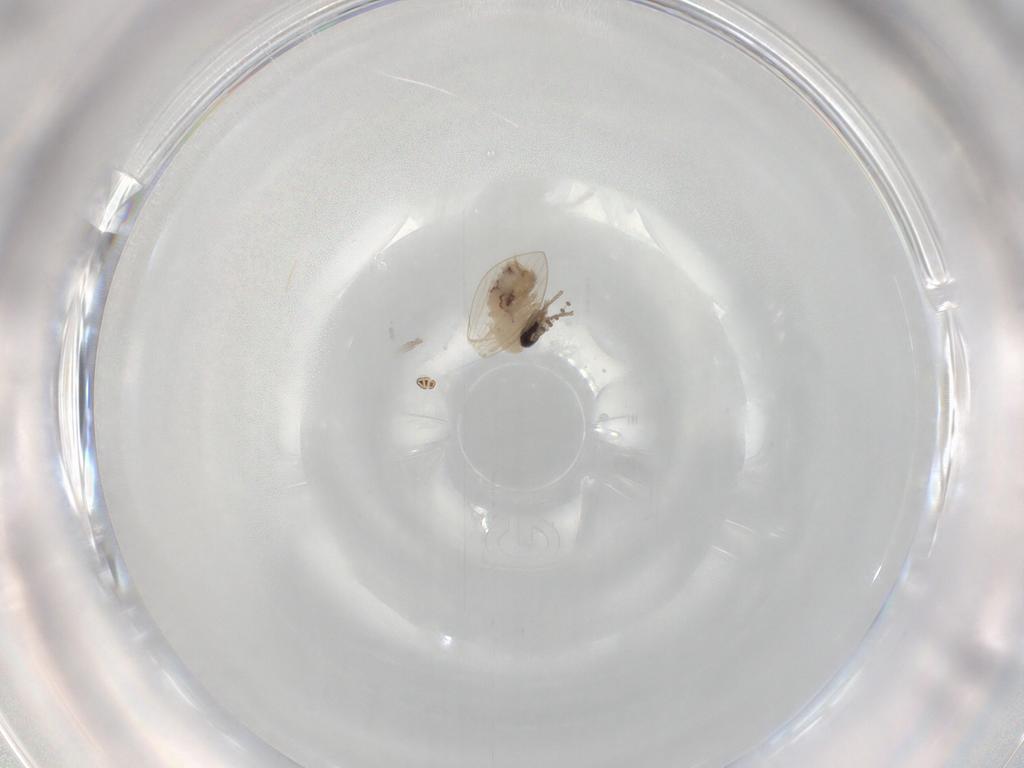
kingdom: Animalia
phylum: Arthropoda
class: Insecta
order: Diptera
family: Psychodidae
